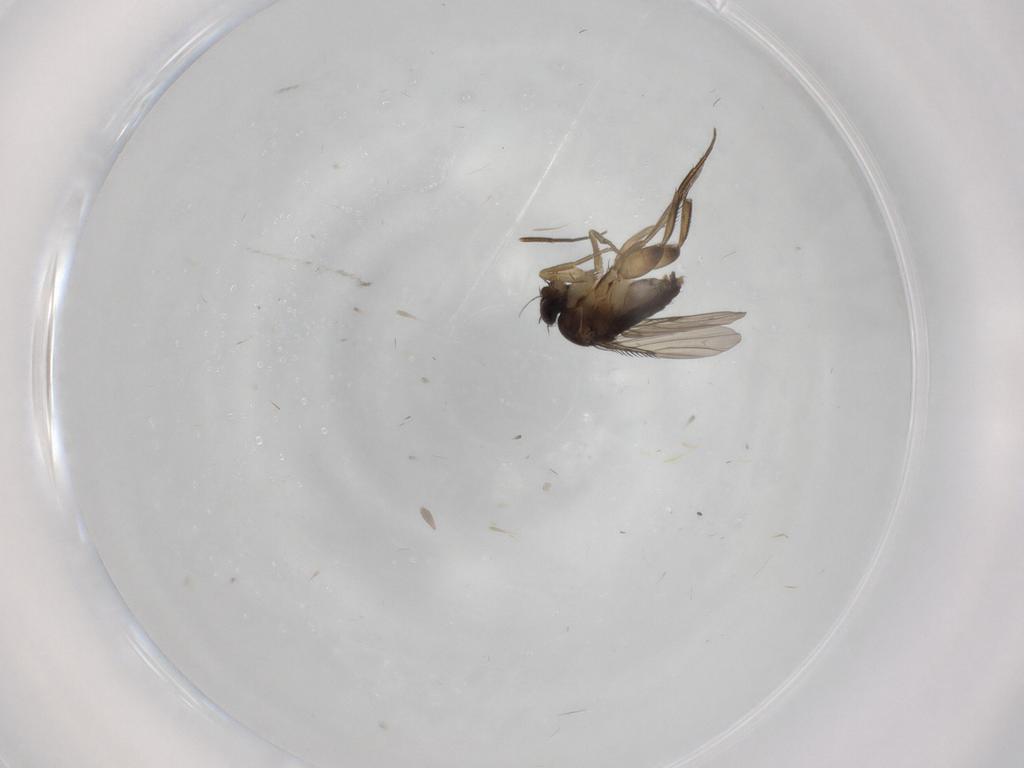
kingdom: Animalia
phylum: Arthropoda
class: Insecta
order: Diptera
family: Phoridae
